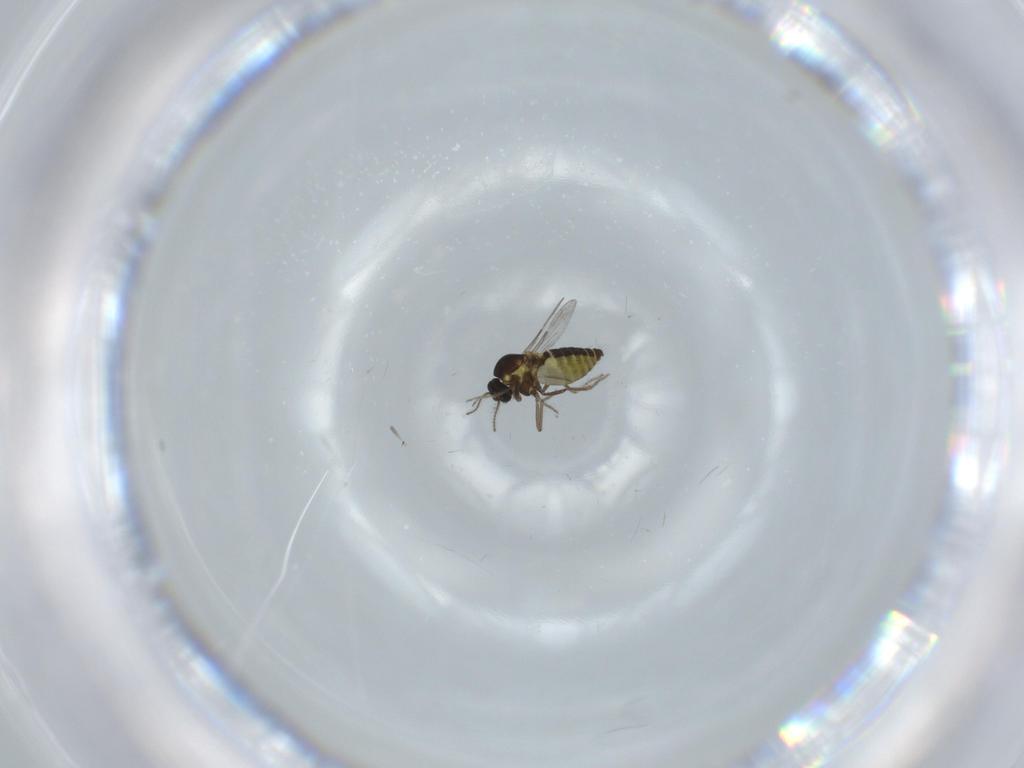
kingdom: Animalia
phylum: Arthropoda
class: Insecta
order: Diptera
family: Ceratopogonidae
